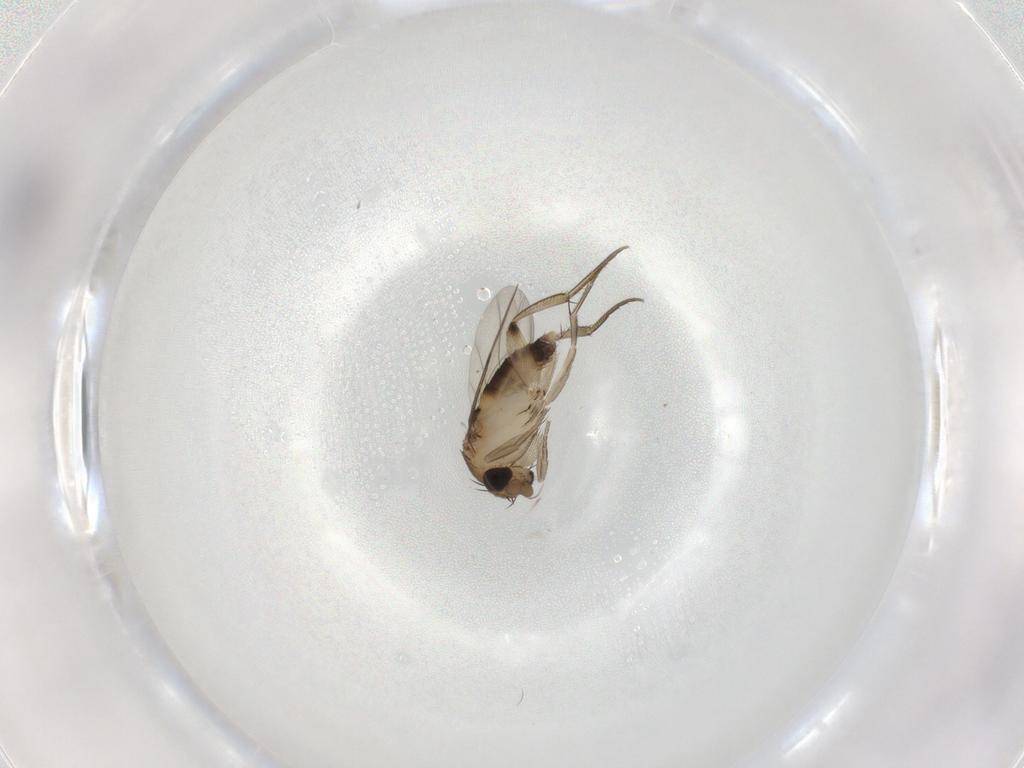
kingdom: Animalia
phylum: Arthropoda
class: Insecta
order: Diptera
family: Phoridae
